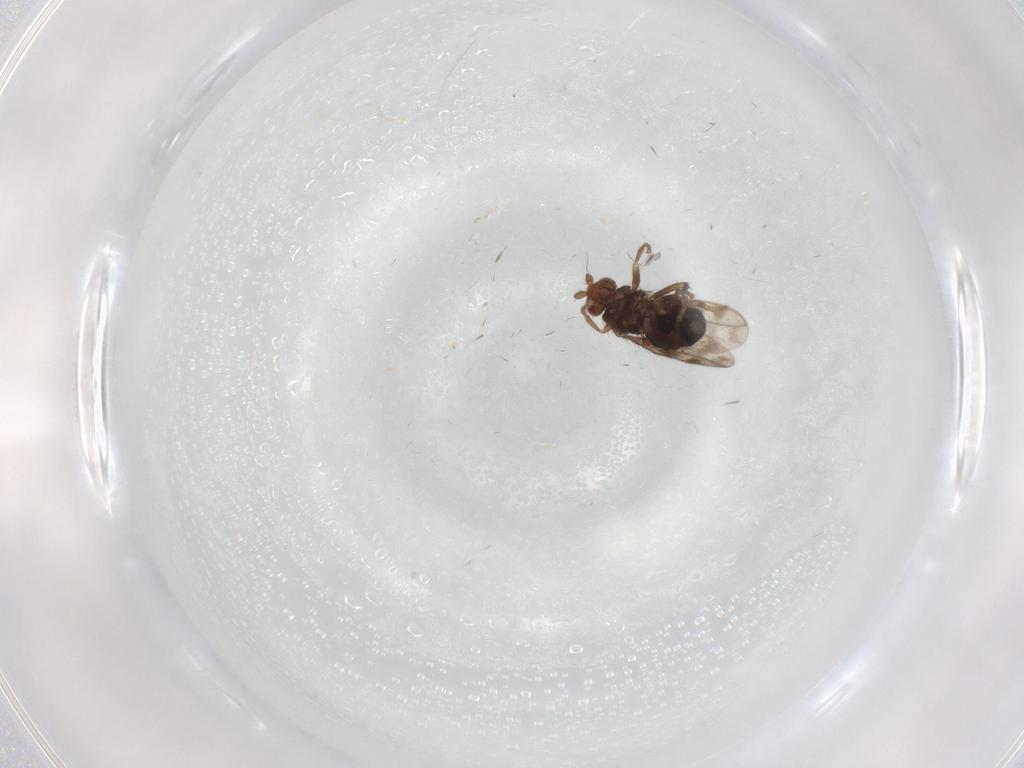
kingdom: Animalia
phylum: Arthropoda
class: Insecta
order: Diptera
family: Sphaeroceridae
